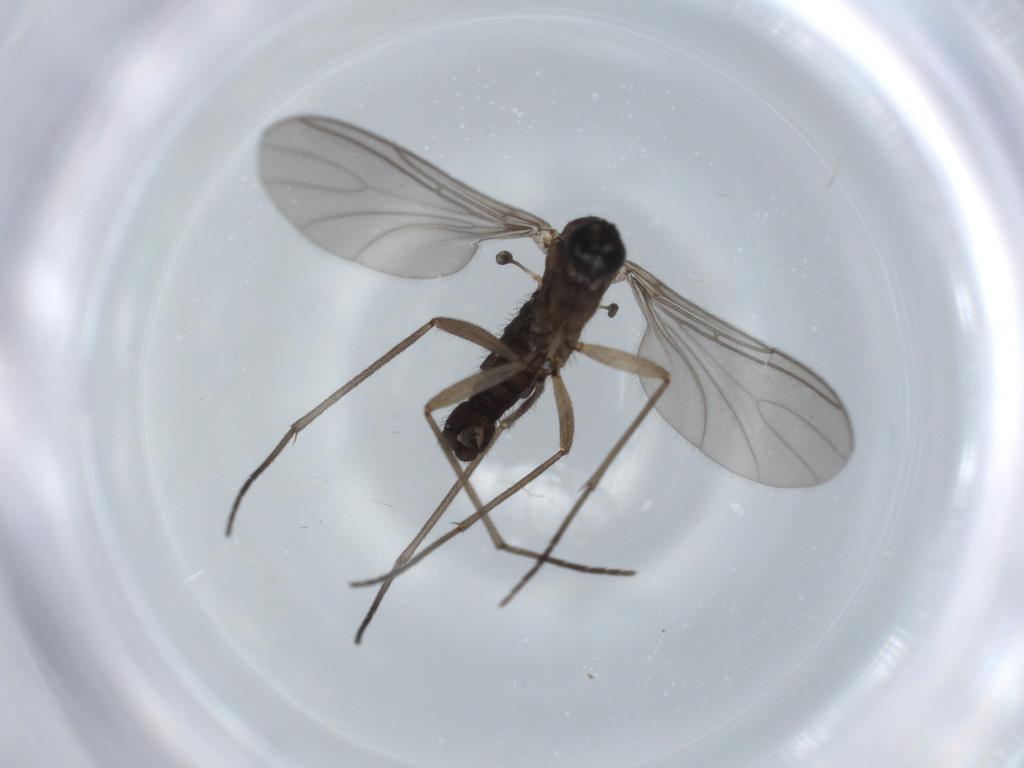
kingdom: Animalia
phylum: Arthropoda
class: Insecta
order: Diptera
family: Sciaridae
